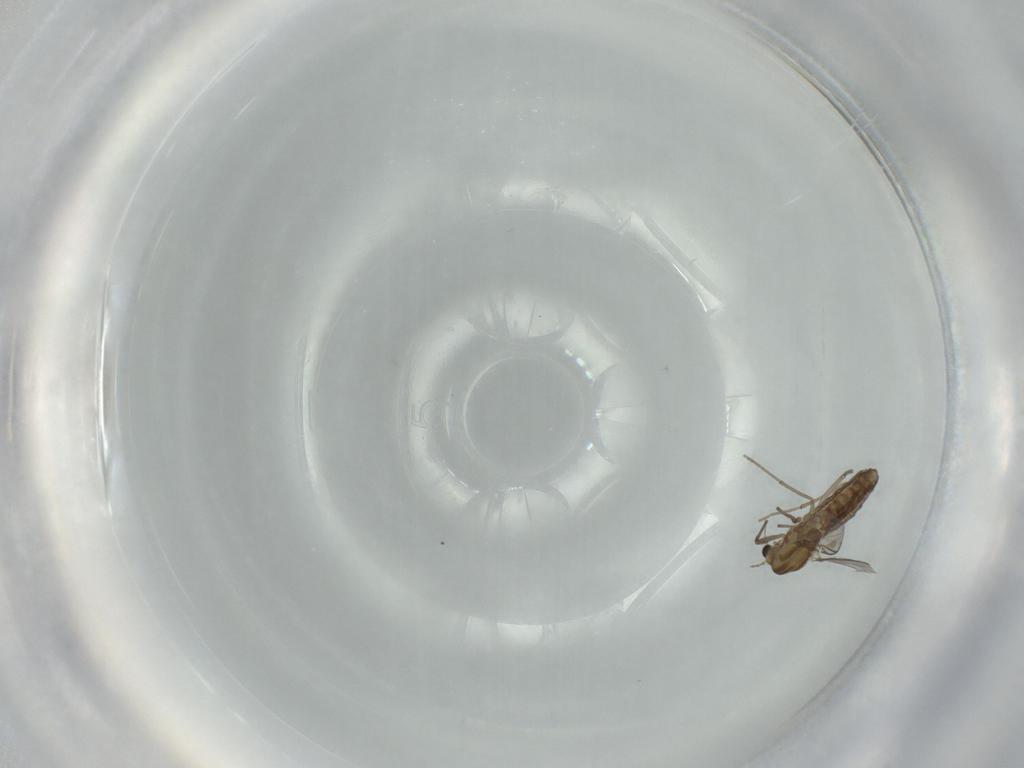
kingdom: Animalia
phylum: Arthropoda
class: Insecta
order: Diptera
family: Chironomidae
